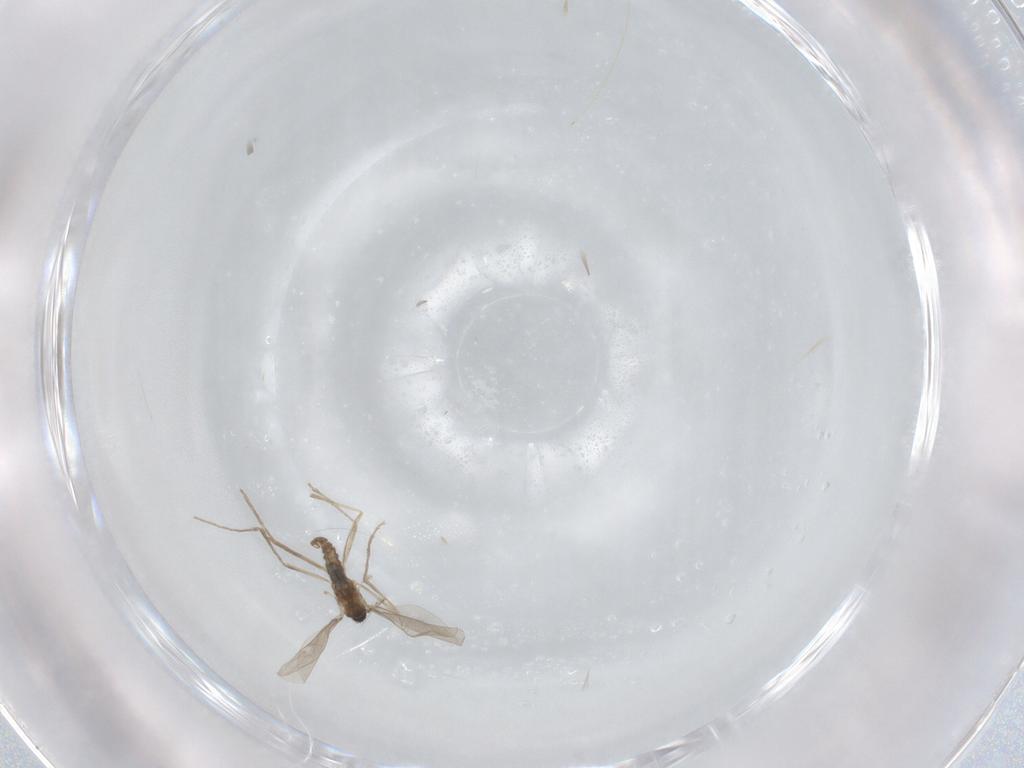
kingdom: Animalia
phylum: Arthropoda
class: Insecta
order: Diptera
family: Cecidomyiidae
